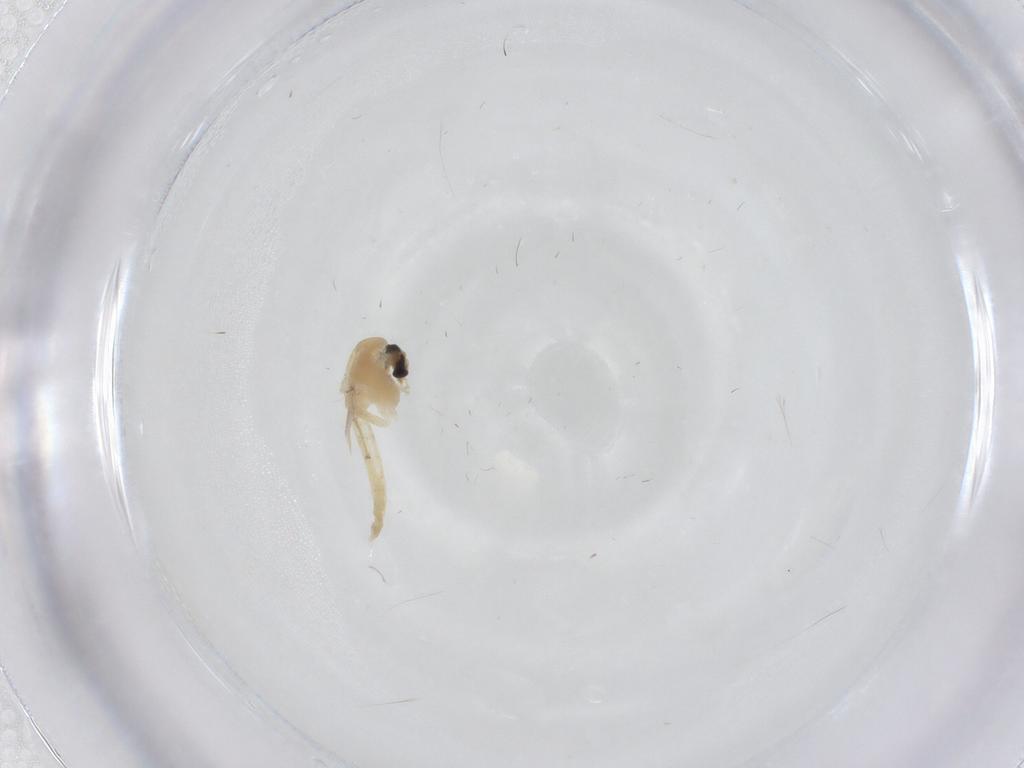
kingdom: Animalia
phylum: Arthropoda
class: Insecta
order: Diptera
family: Chironomidae
